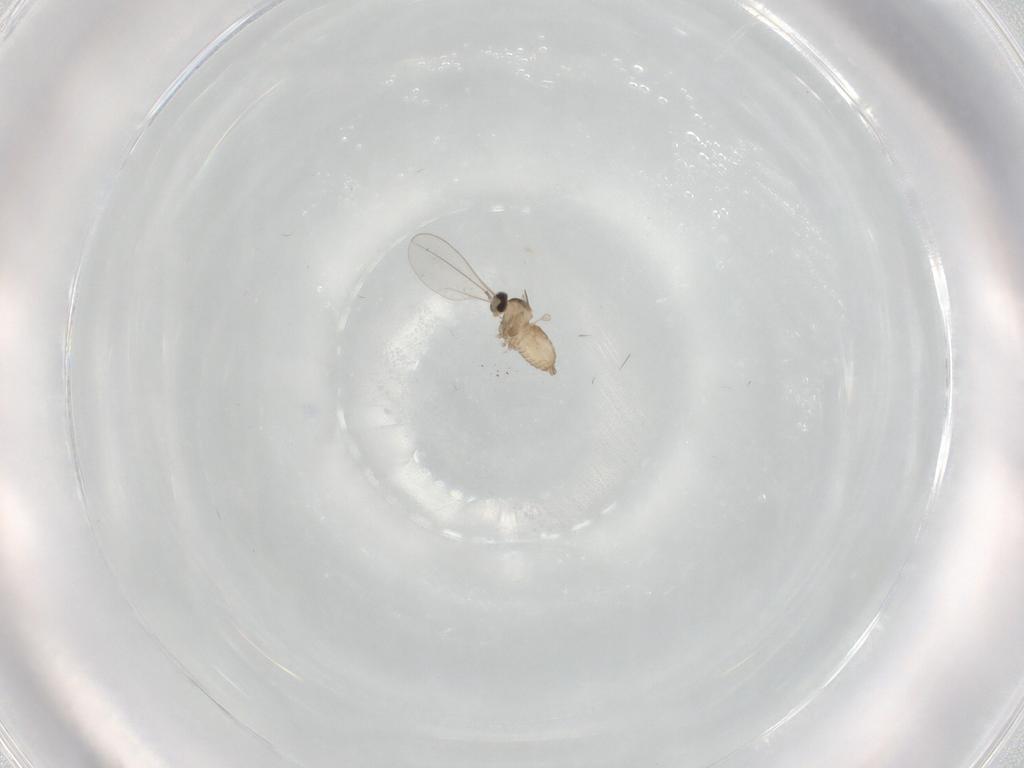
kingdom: Animalia
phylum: Arthropoda
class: Insecta
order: Diptera
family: Cecidomyiidae
